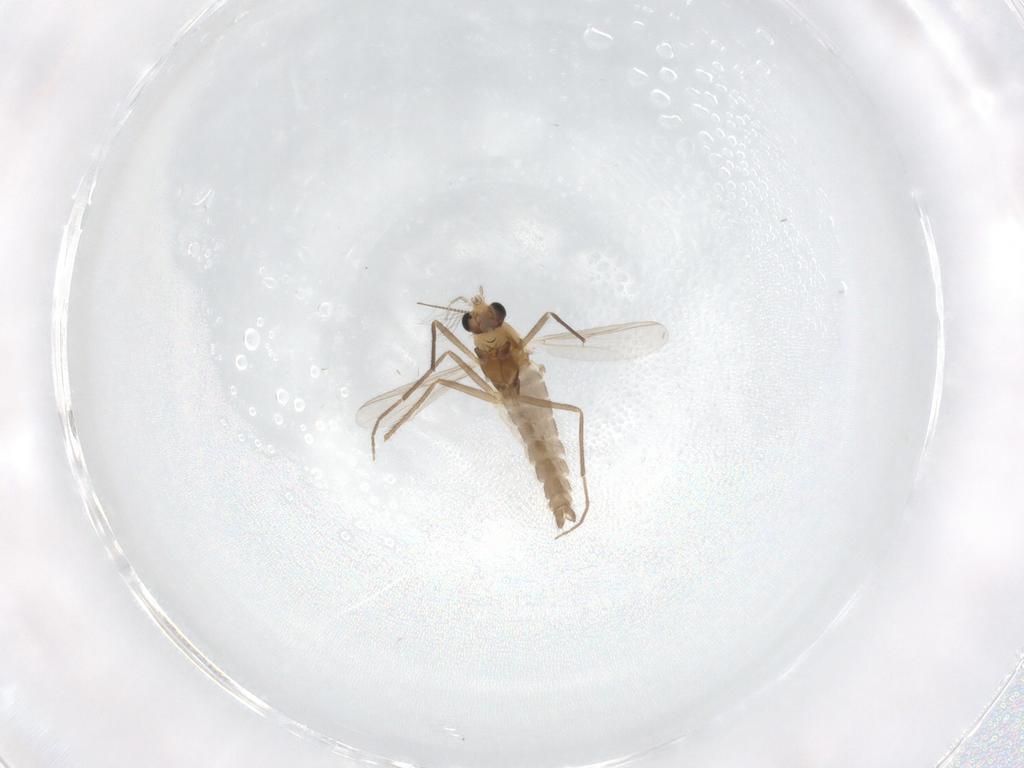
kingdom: Animalia
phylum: Arthropoda
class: Insecta
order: Diptera
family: Chironomidae
